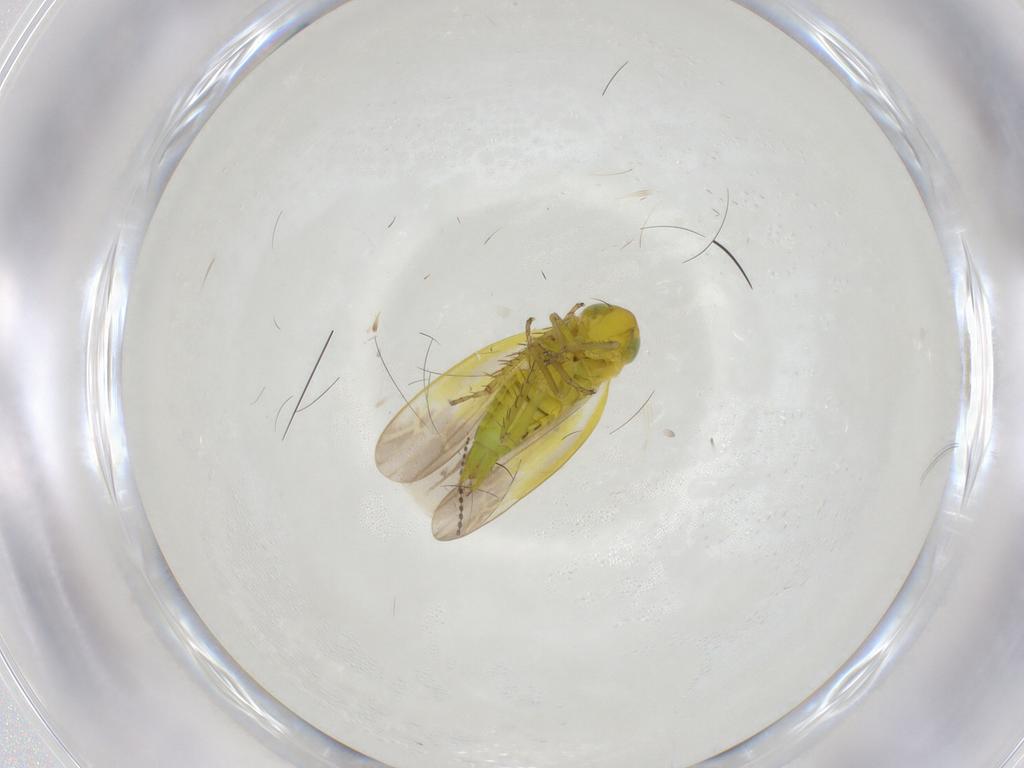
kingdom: Animalia
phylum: Arthropoda
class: Insecta
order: Hemiptera
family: Cicadellidae
